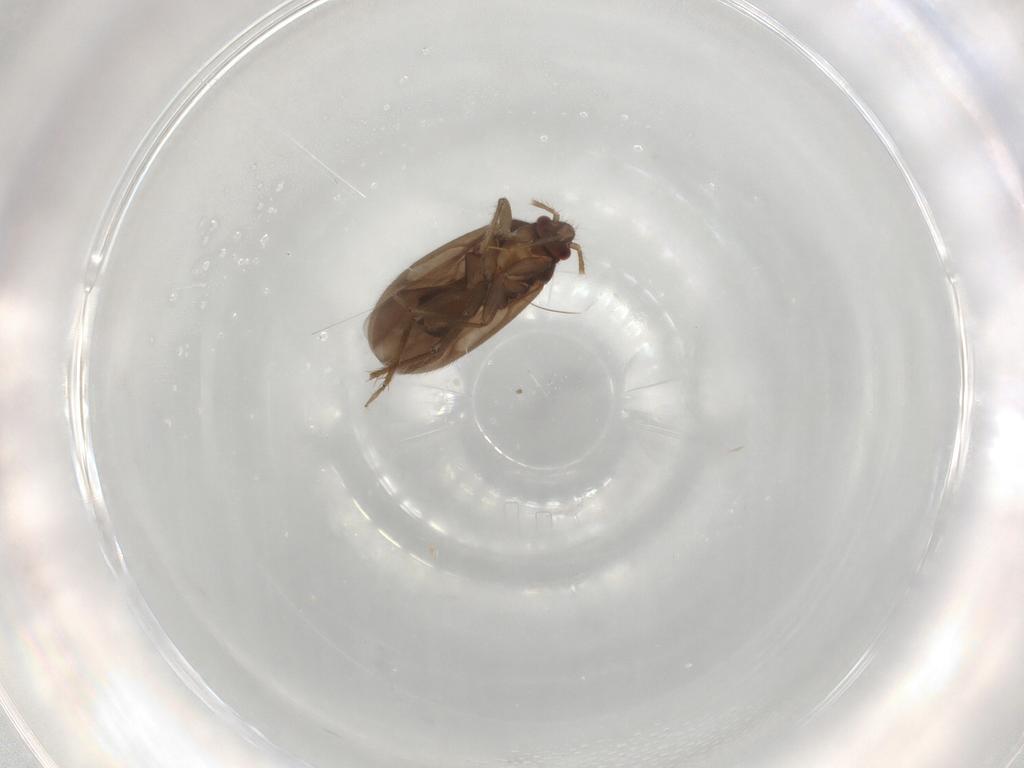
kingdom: Animalia
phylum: Arthropoda
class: Insecta
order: Hemiptera
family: Ceratocombidae
